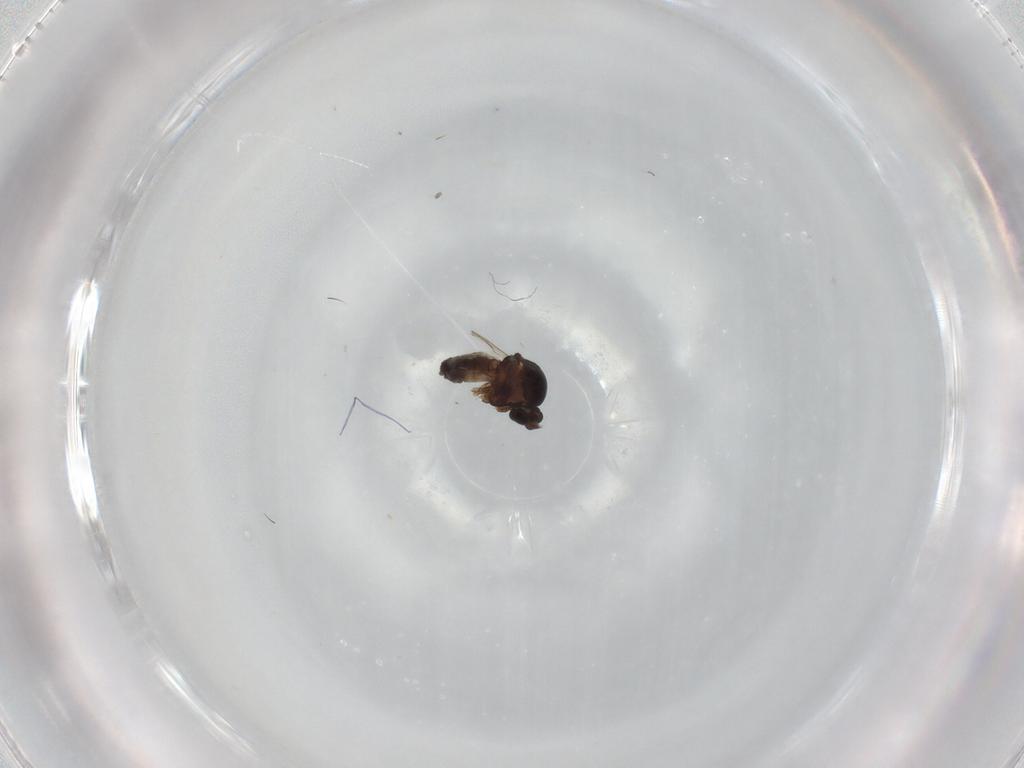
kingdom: Animalia
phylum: Arthropoda
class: Insecta
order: Diptera
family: Ceratopogonidae
